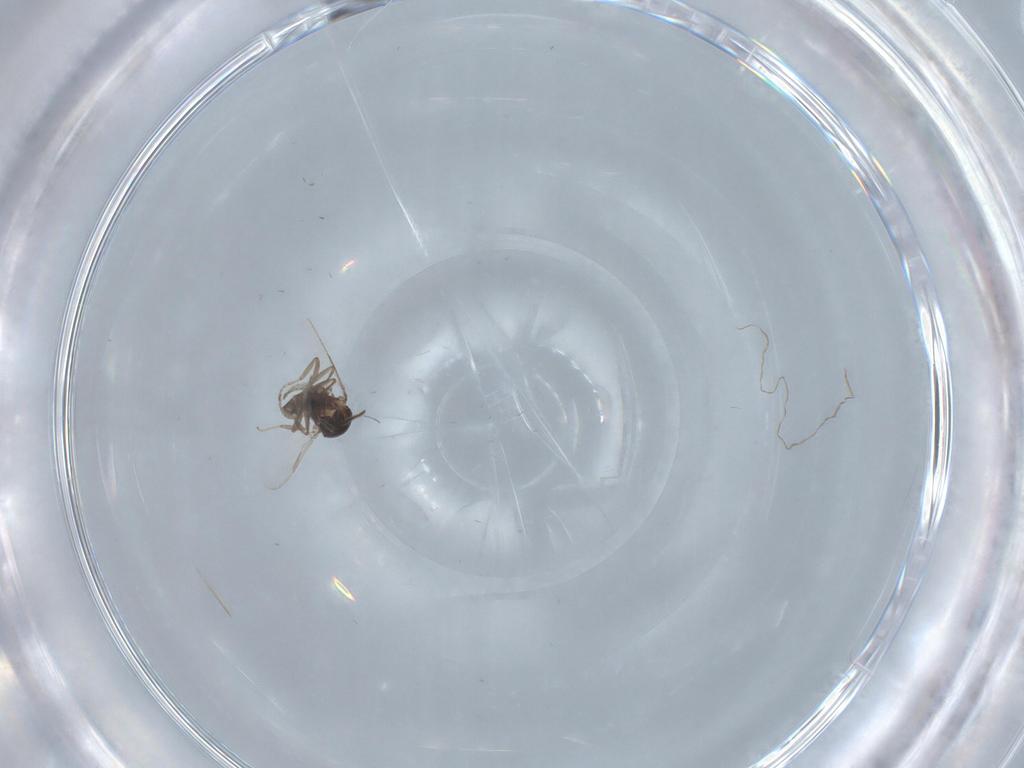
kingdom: Animalia
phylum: Arthropoda
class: Insecta
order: Diptera
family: Ceratopogonidae
